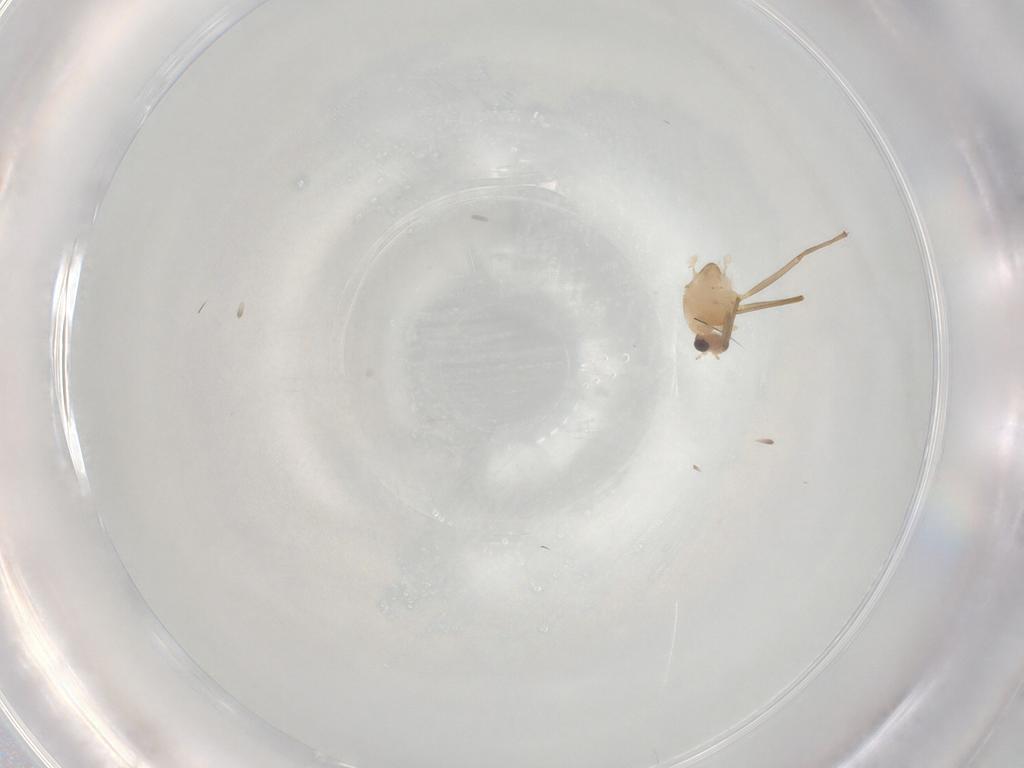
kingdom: Animalia
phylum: Arthropoda
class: Insecta
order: Diptera
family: Chironomidae
